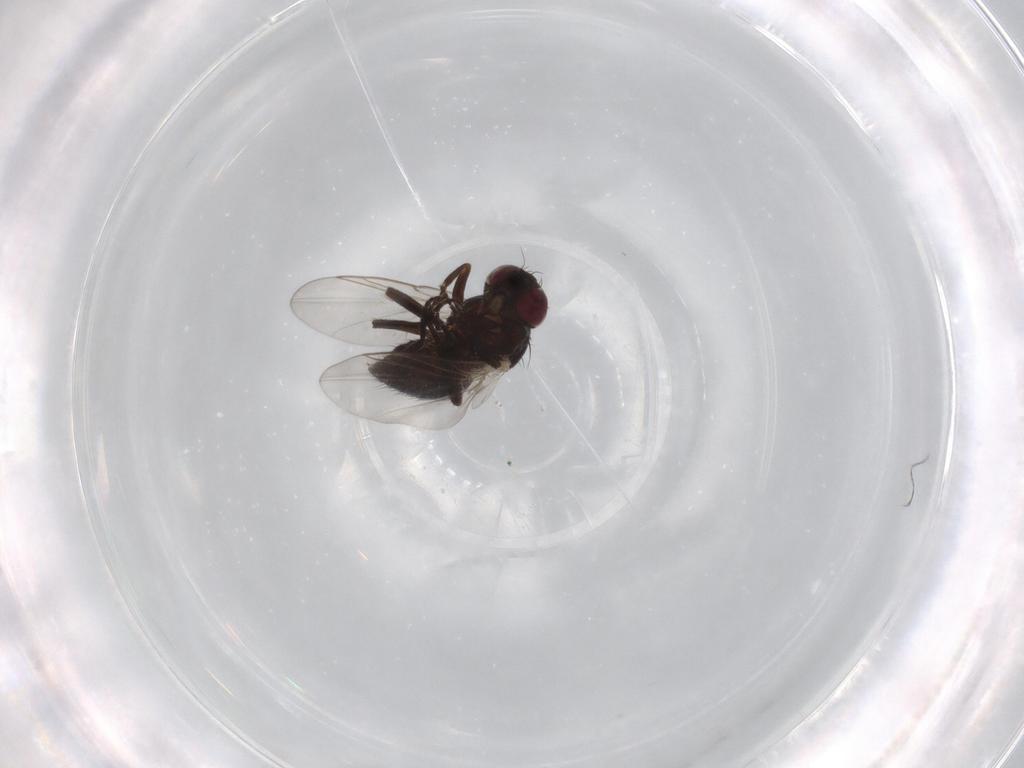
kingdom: Animalia
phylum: Arthropoda
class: Insecta
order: Diptera
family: Agromyzidae
